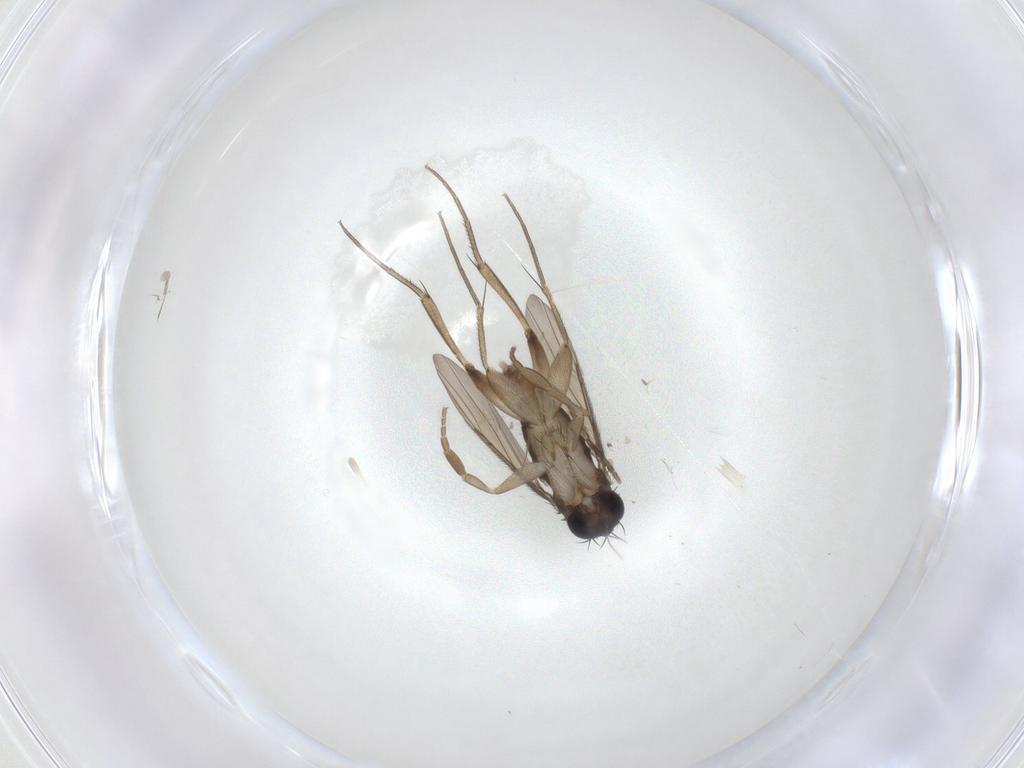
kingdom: Animalia
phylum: Arthropoda
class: Insecta
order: Diptera
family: Phoridae
